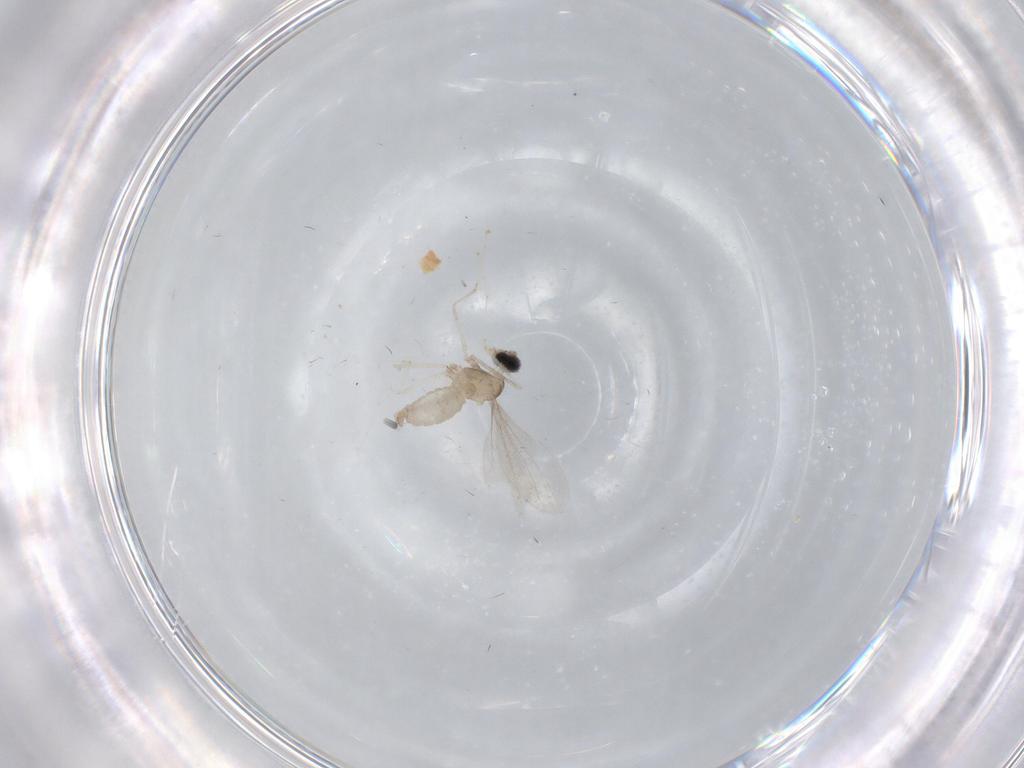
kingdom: Animalia
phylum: Arthropoda
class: Insecta
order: Diptera
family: Cecidomyiidae
